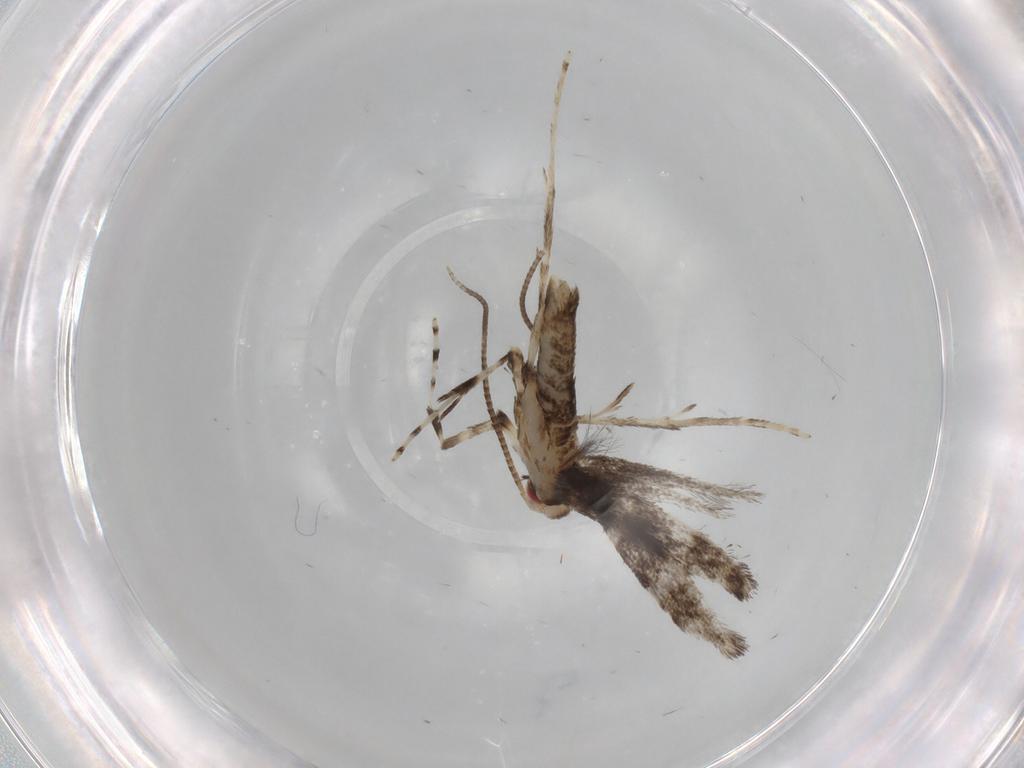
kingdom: Animalia
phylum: Arthropoda
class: Insecta
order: Lepidoptera
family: Gracillariidae
